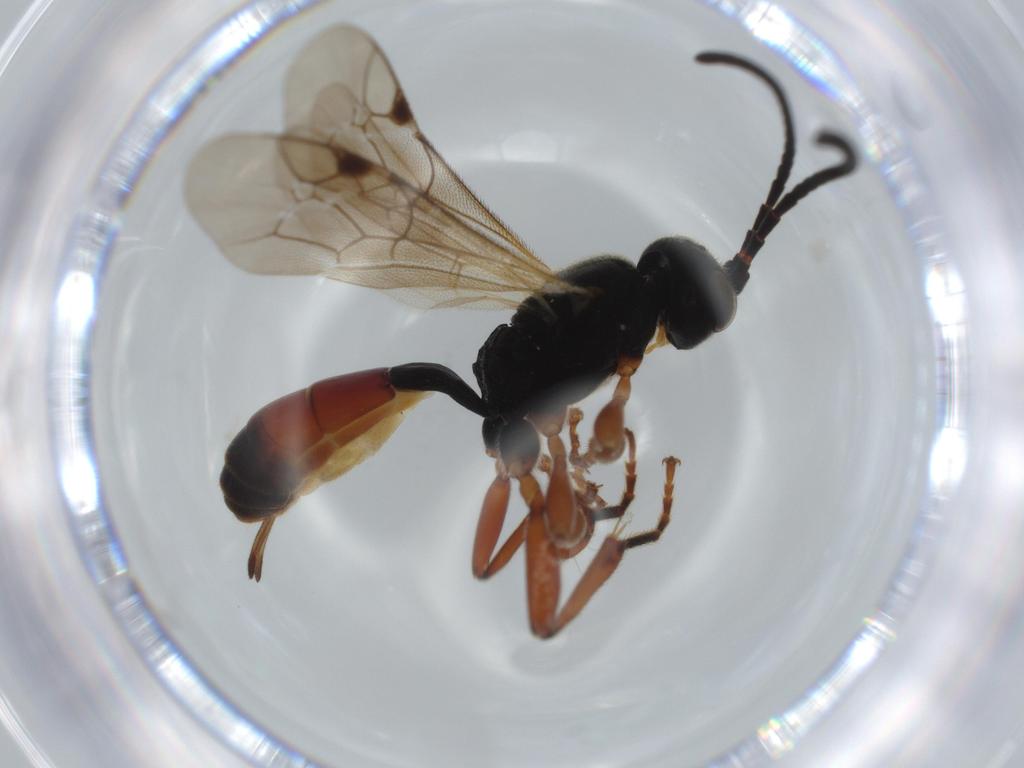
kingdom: Animalia
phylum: Arthropoda
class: Insecta
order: Hymenoptera
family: Ichneumonidae
